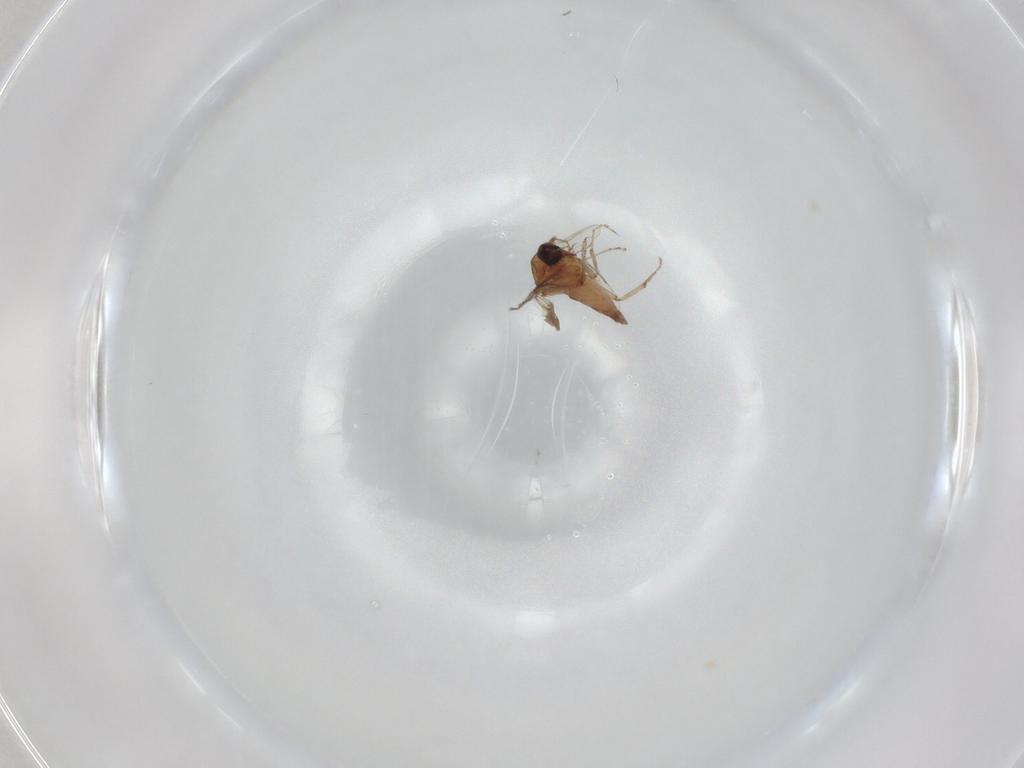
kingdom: Animalia
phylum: Arthropoda
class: Insecta
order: Diptera
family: Ceratopogonidae
